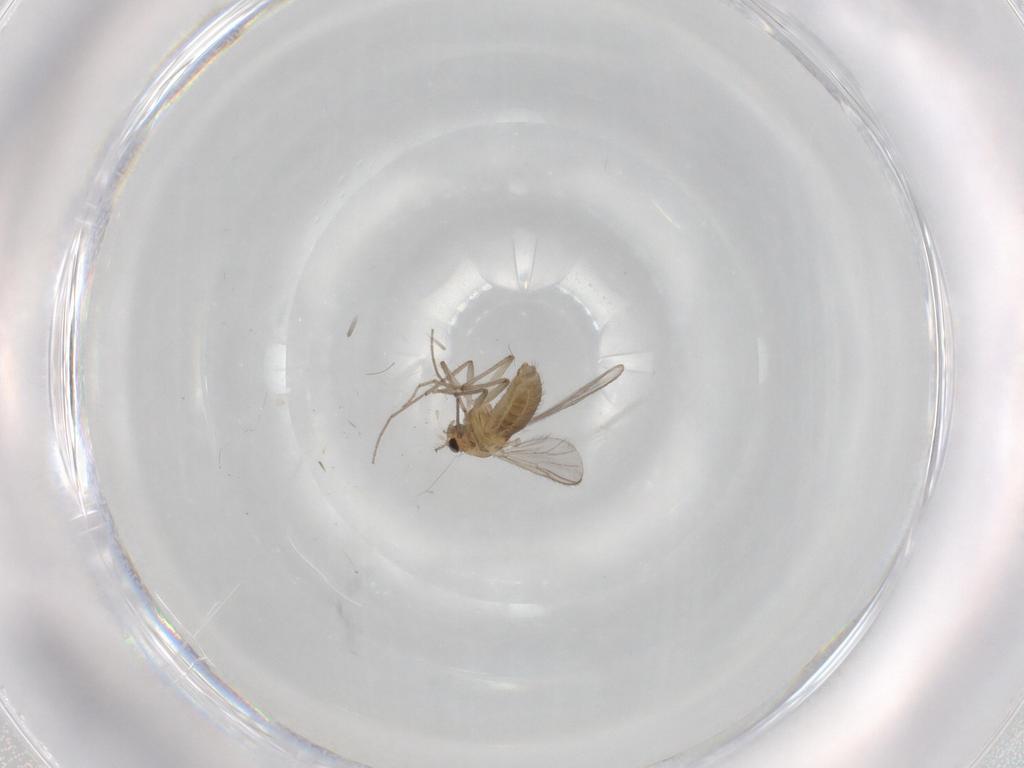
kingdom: Animalia
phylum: Arthropoda
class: Insecta
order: Diptera
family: Chironomidae
